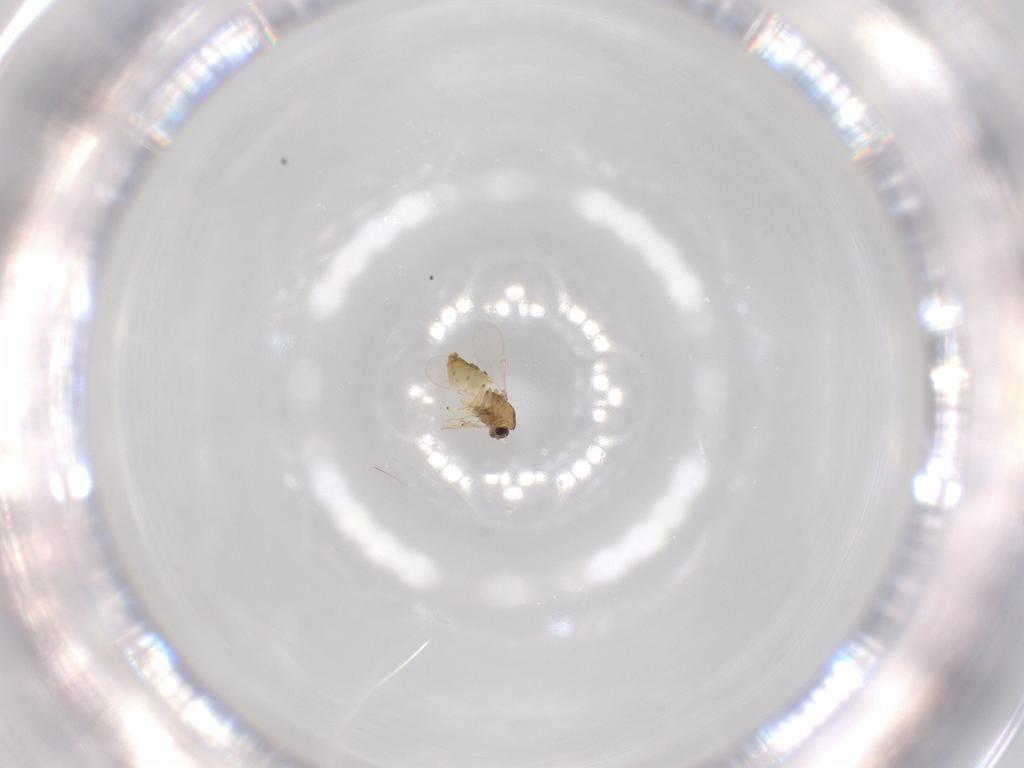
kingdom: Animalia
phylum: Arthropoda
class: Insecta
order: Diptera
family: Chironomidae
